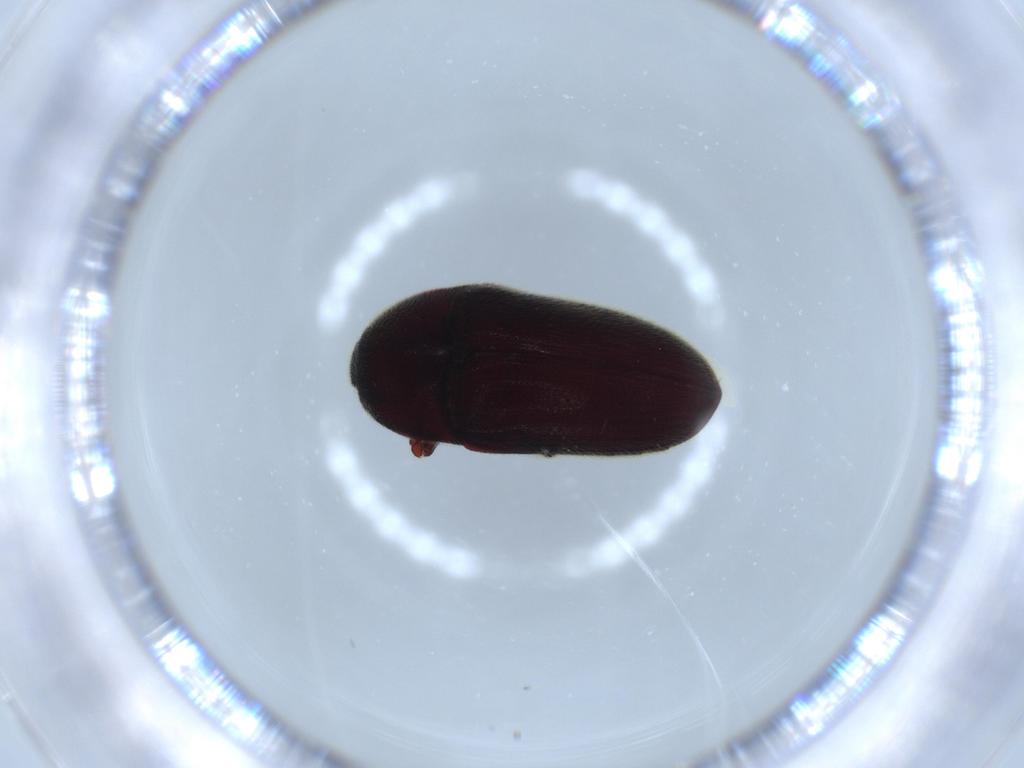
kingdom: Animalia
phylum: Arthropoda
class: Insecta
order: Coleoptera
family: Throscidae
